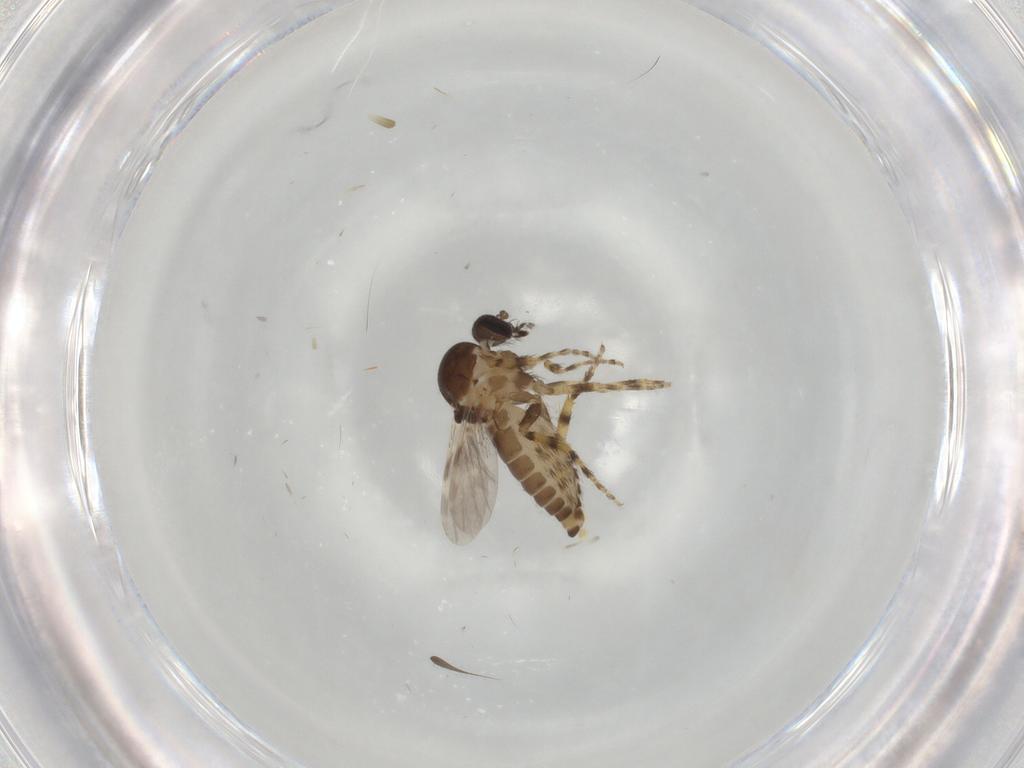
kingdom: Animalia
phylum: Arthropoda
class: Insecta
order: Diptera
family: Ceratopogonidae
